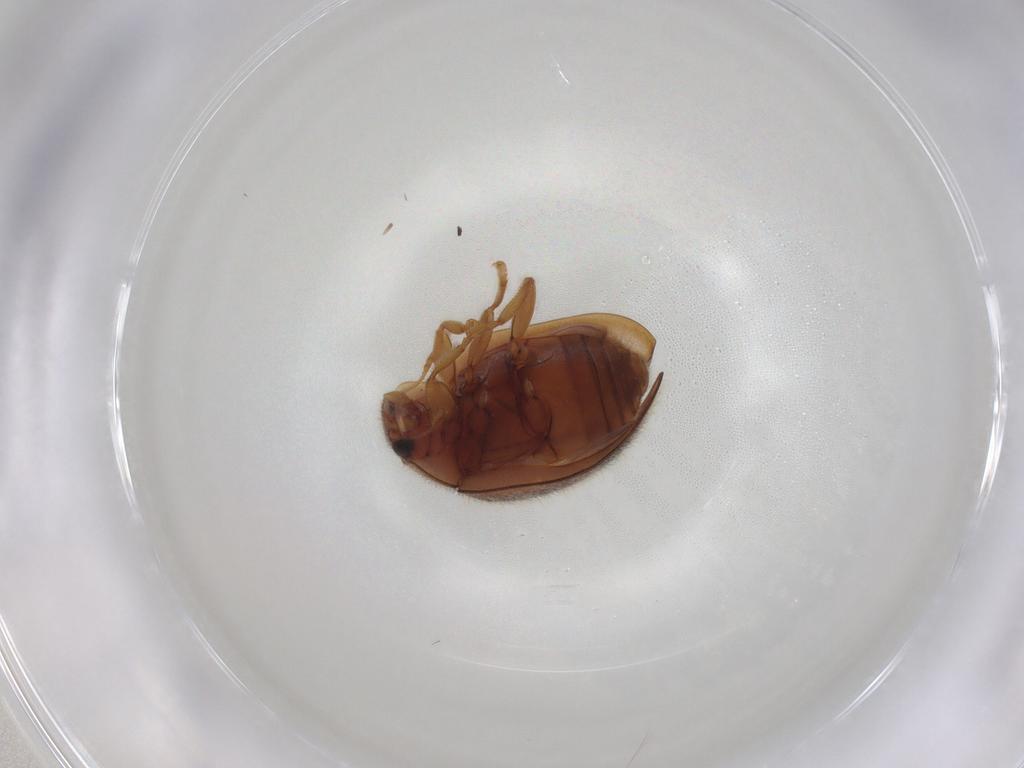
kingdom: Animalia
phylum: Arthropoda
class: Insecta
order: Coleoptera
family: Coccinellidae
